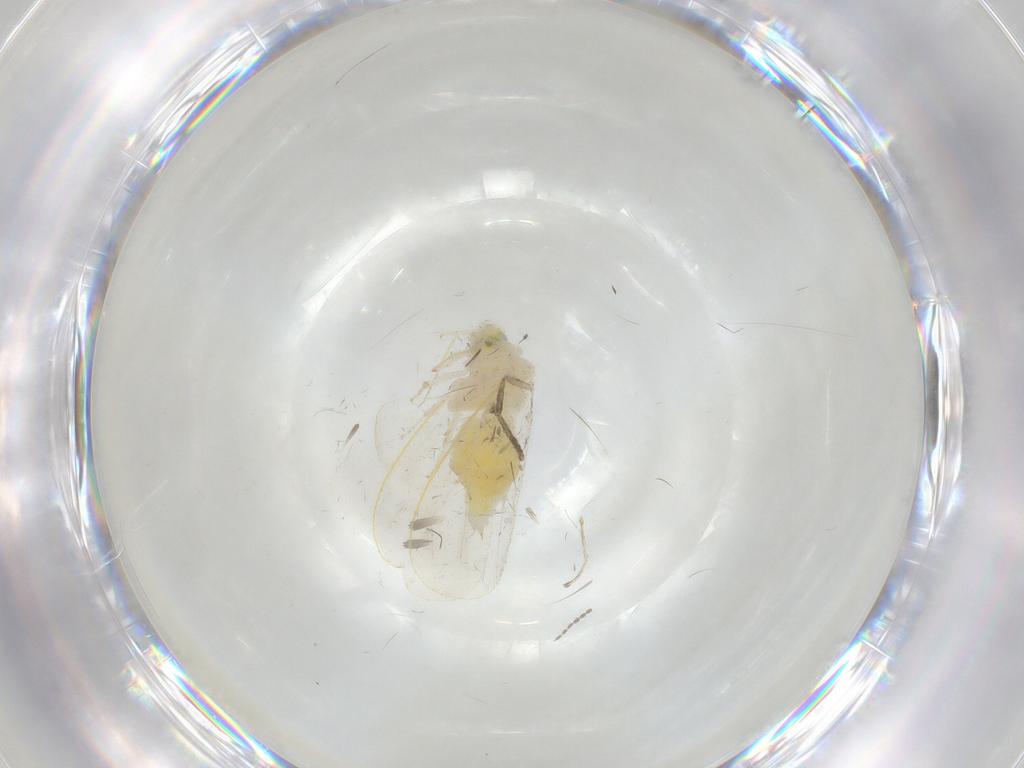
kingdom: Animalia
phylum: Arthropoda
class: Insecta
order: Hemiptera
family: Aleyrodidae
